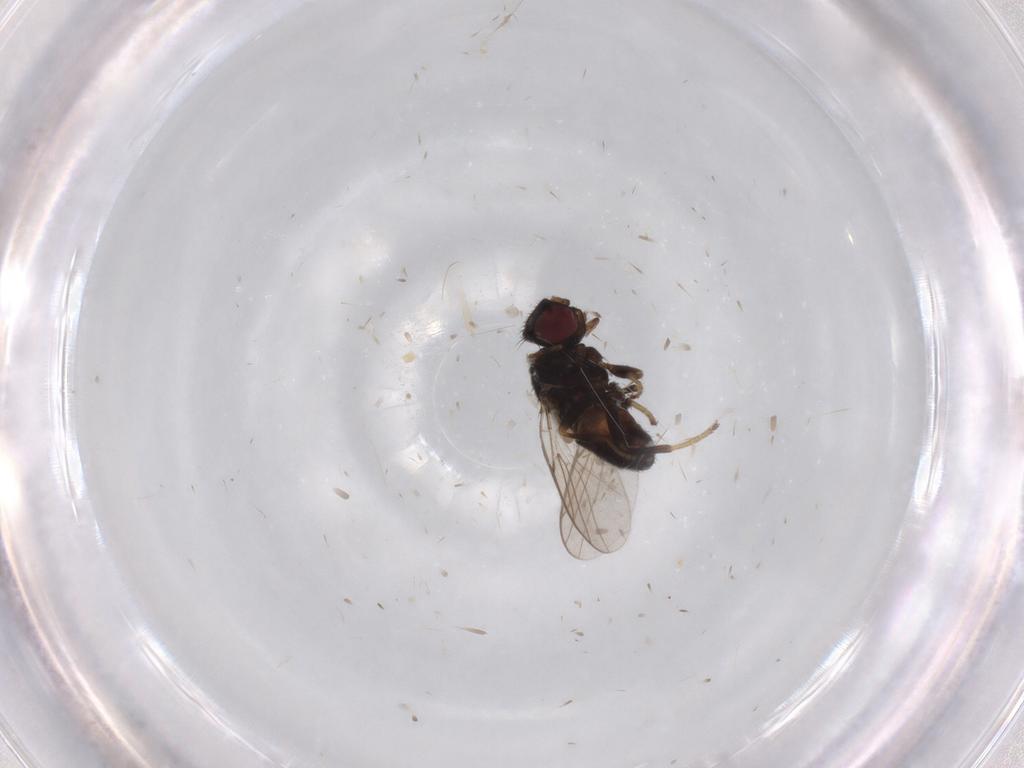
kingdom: Animalia
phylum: Arthropoda
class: Insecta
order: Diptera
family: Chloropidae
